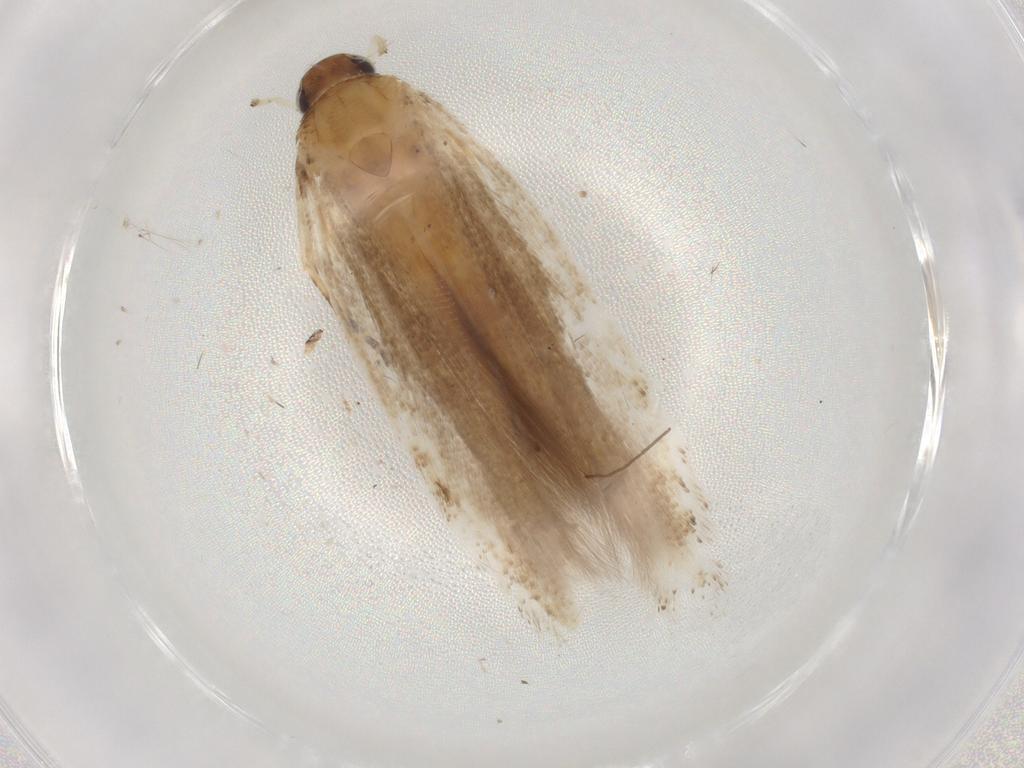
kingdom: Animalia
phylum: Arthropoda
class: Insecta
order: Lepidoptera
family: Gelechiidae
